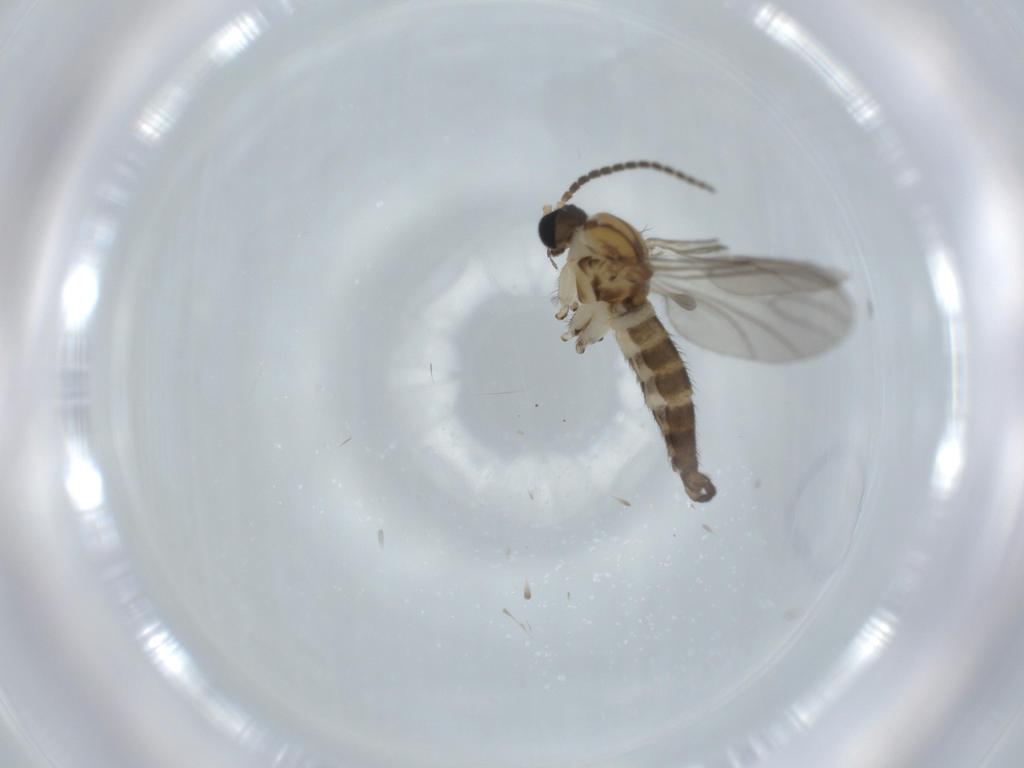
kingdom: Animalia
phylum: Arthropoda
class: Insecta
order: Diptera
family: Sciaridae
